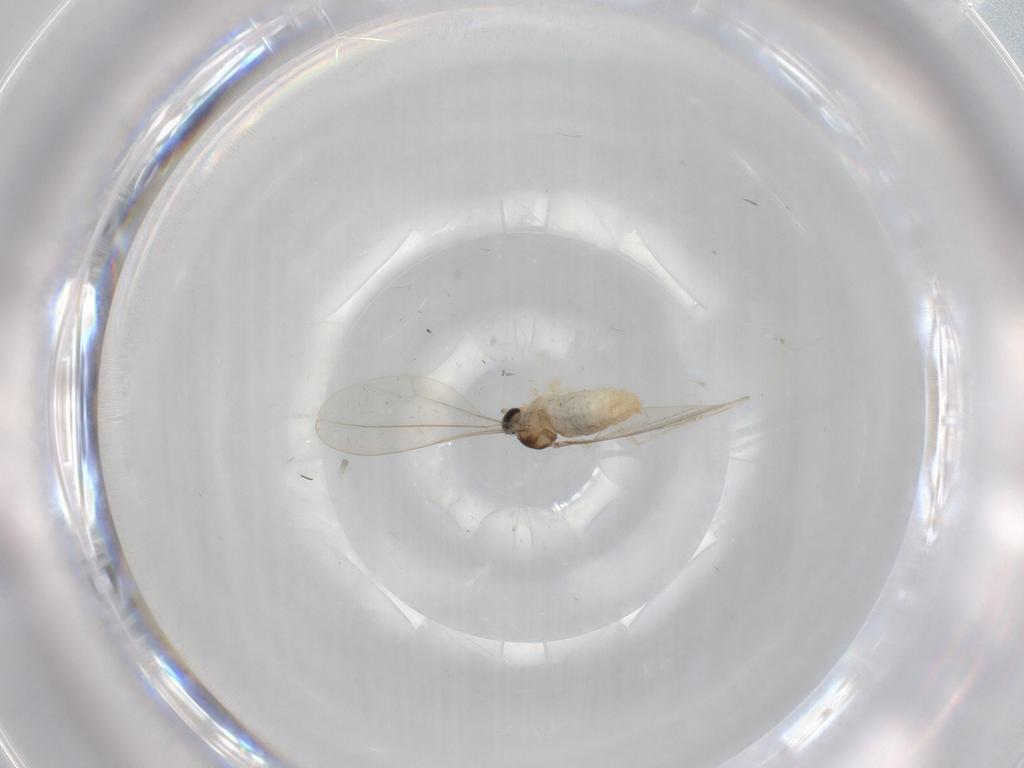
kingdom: Animalia
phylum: Arthropoda
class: Insecta
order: Diptera
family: Cecidomyiidae
